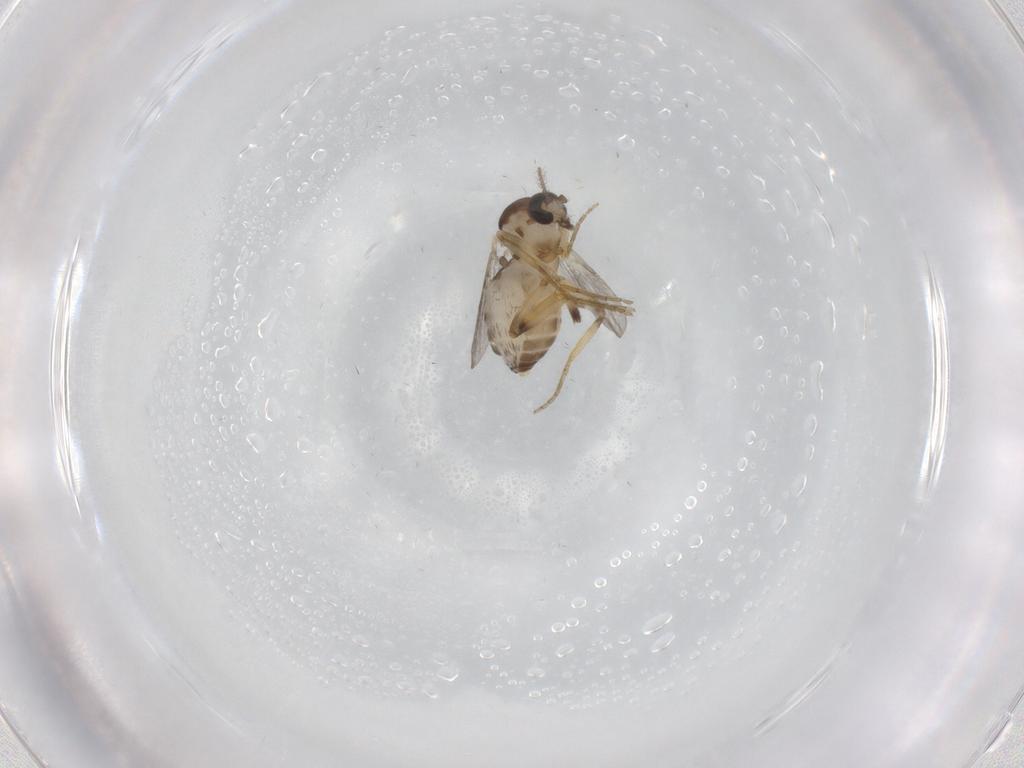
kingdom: Animalia
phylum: Arthropoda
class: Insecta
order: Diptera
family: Ceratopogonidae
